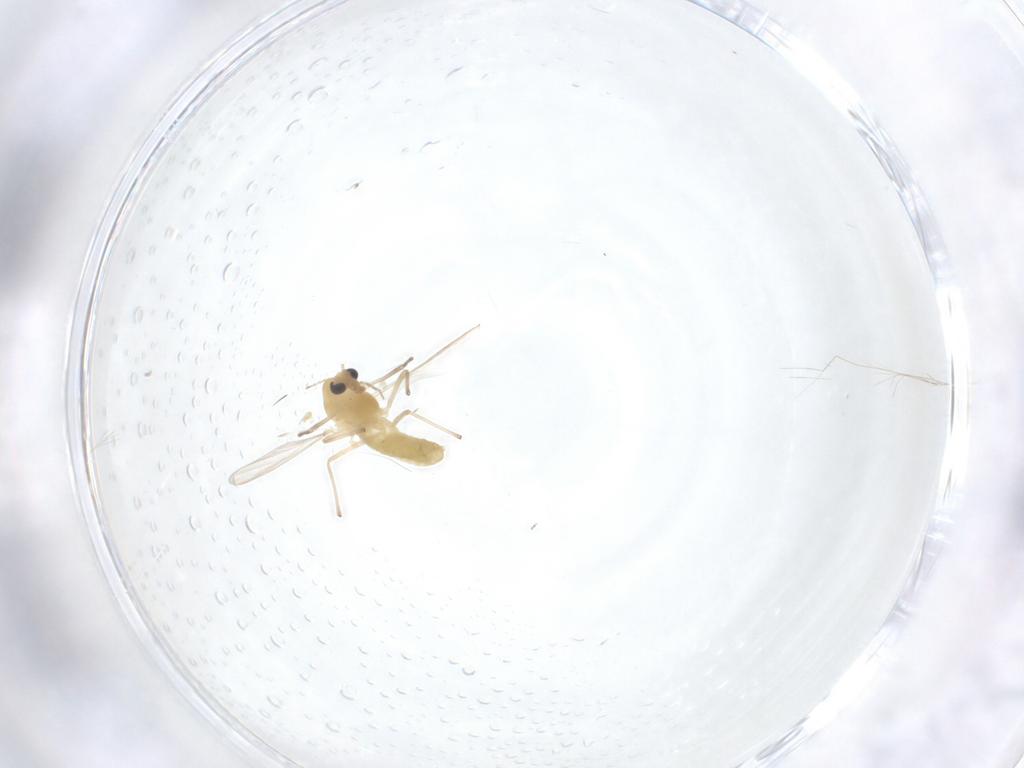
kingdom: Animalia
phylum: Arthropoda
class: Insecta
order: Diptera
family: Chironomidae
